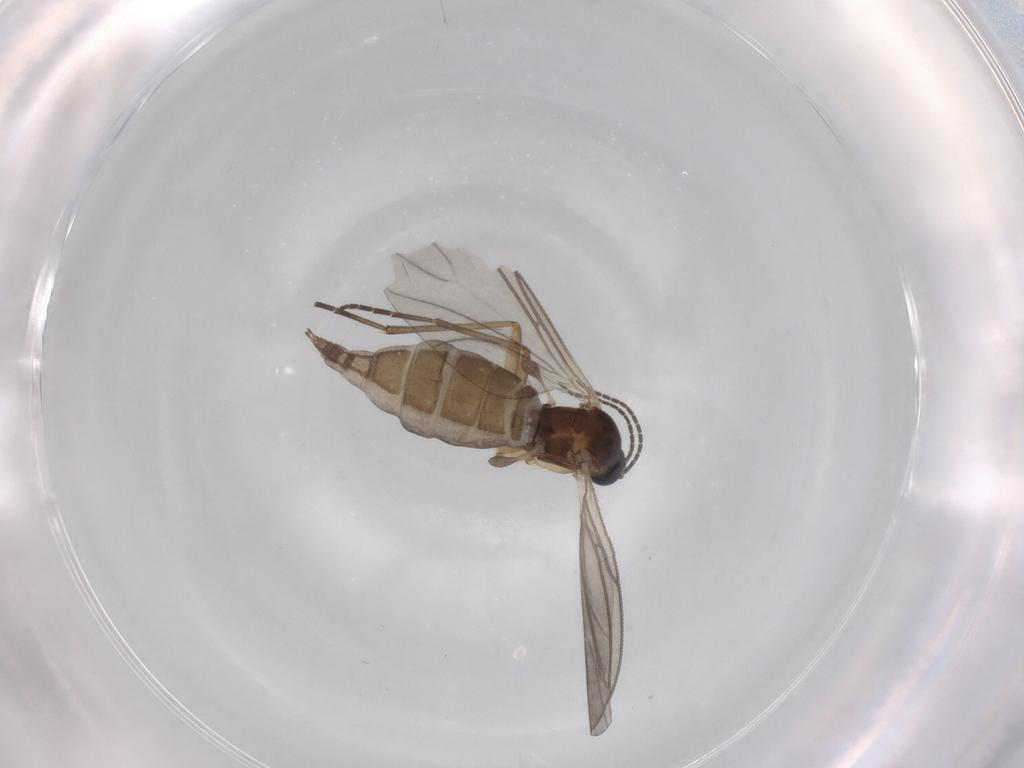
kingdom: Animalia
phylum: Arthropoda
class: Insecta
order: Diptera
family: Sciaridae
